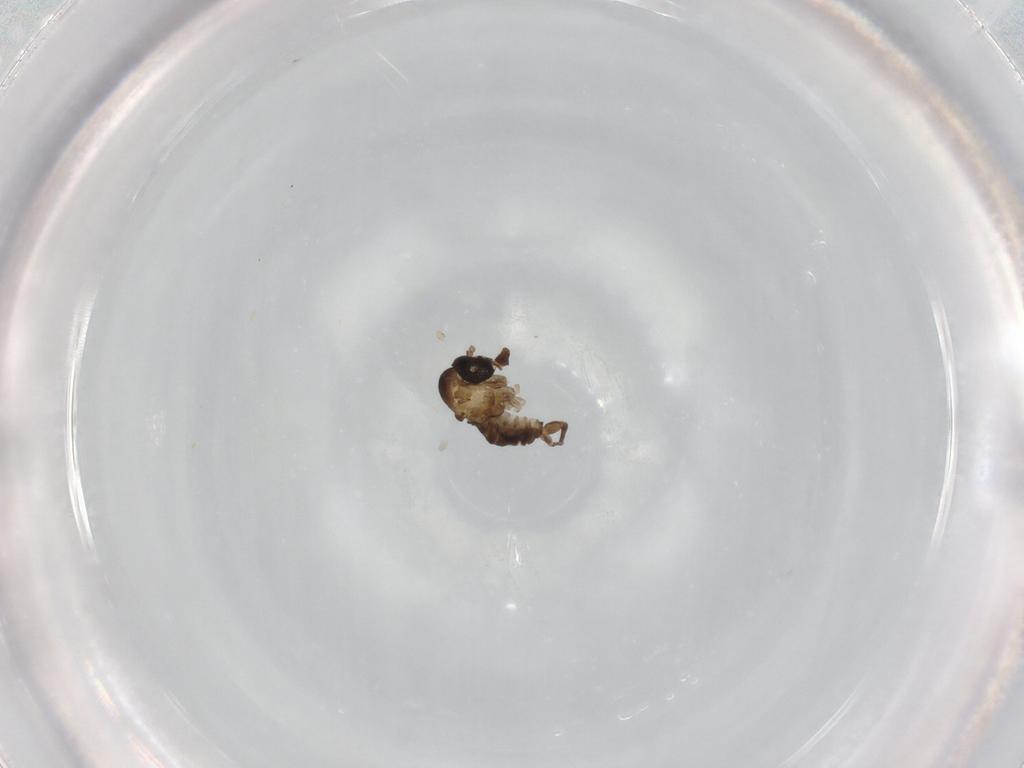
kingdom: Animalia
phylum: Arthropoda
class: Insecta
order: Diptera
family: Psychodidae
